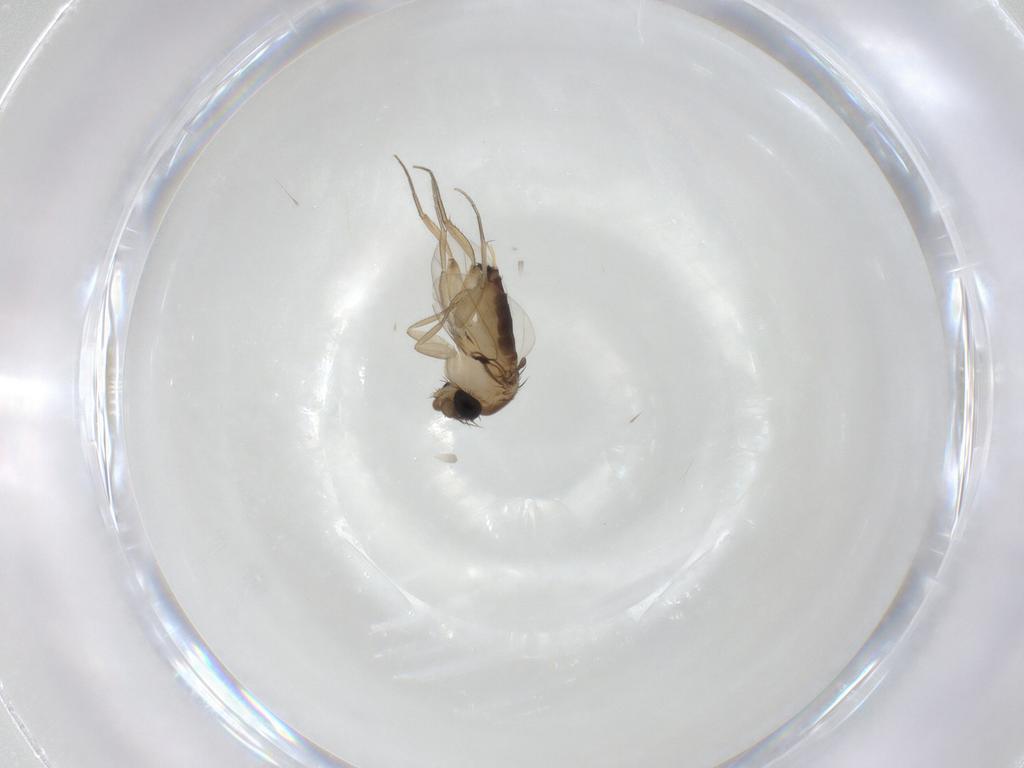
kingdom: Animalia
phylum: Arthropoda
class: Insecta
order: Diptera
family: Phoridae
